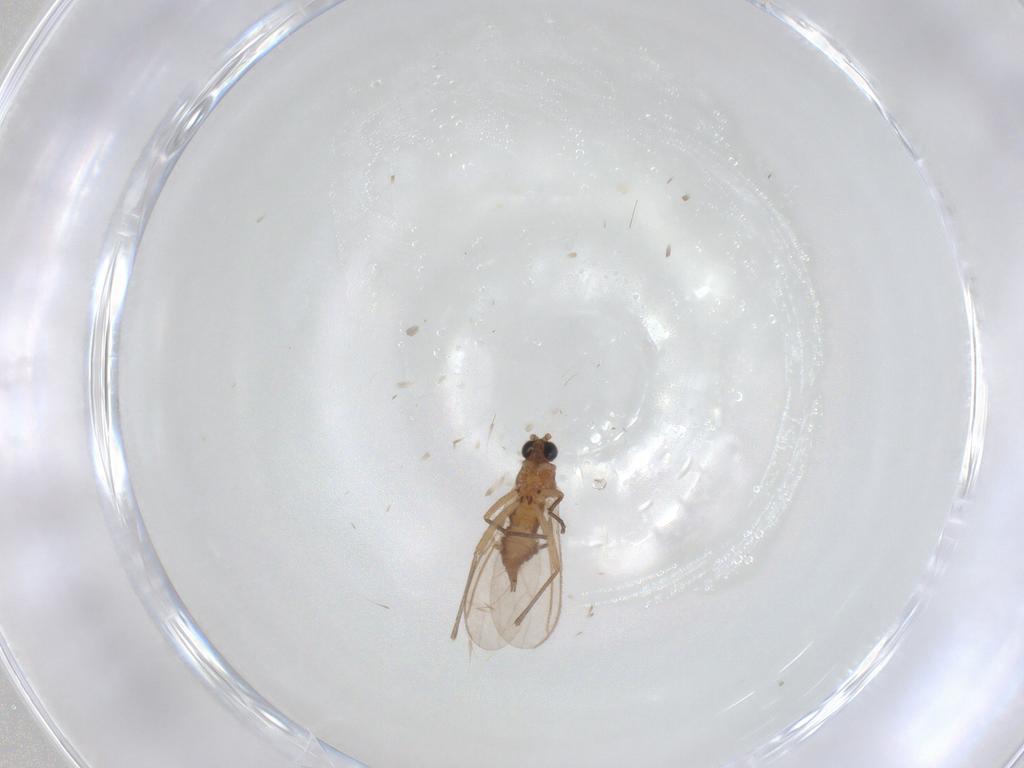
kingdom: Animalia
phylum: Arthropoda
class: Insecta
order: Diptera
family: Sciaridae
